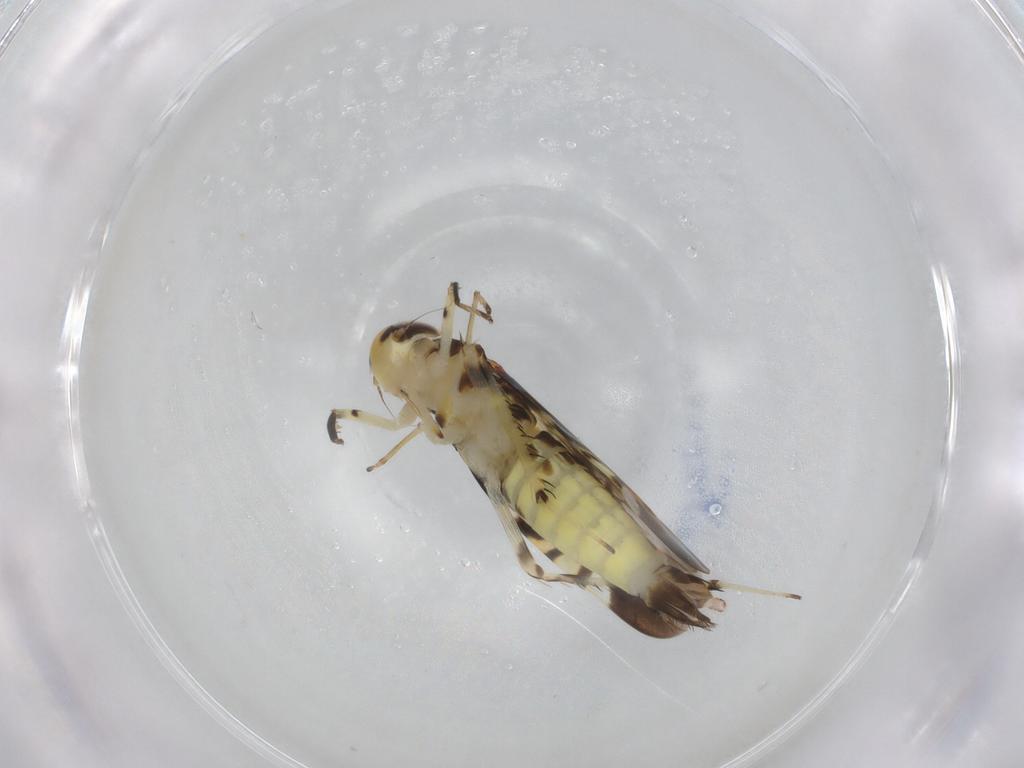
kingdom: Animalia
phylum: Arthropoda
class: Insecta
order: Hemiptera
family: Cicadellidae
